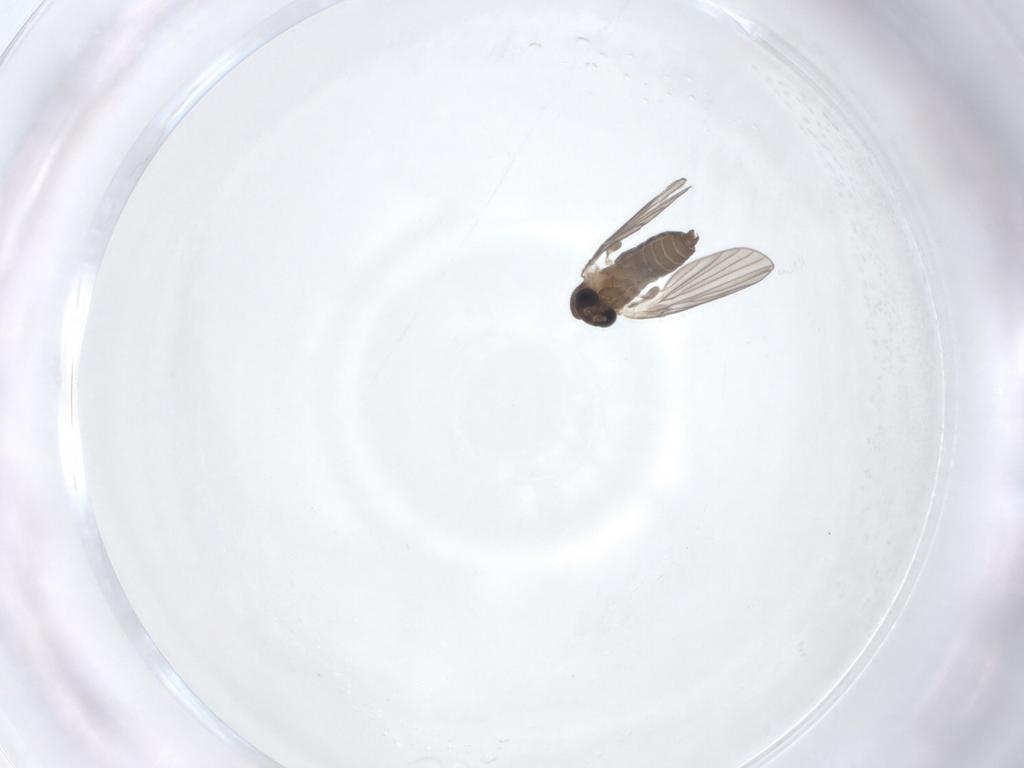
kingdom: Animalia
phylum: Arthropoda
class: Insecta
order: Diptera
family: Psychodidae
